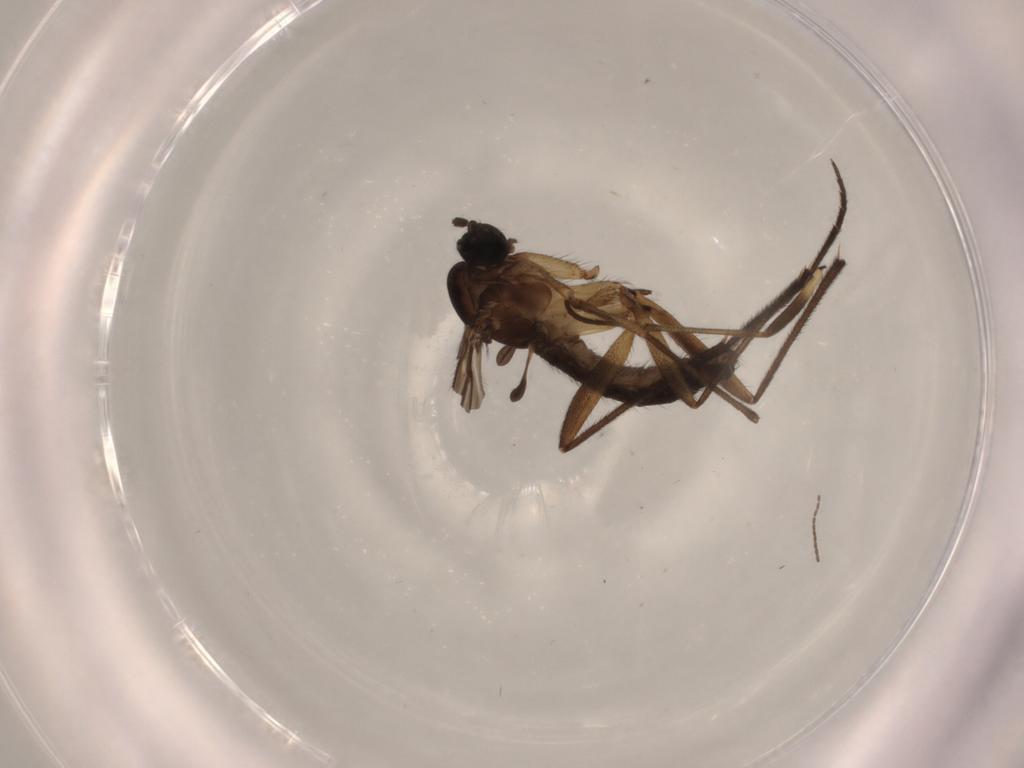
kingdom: Animalia
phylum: Arthropoda
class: Insecta
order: Diptera
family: Sciaridae
